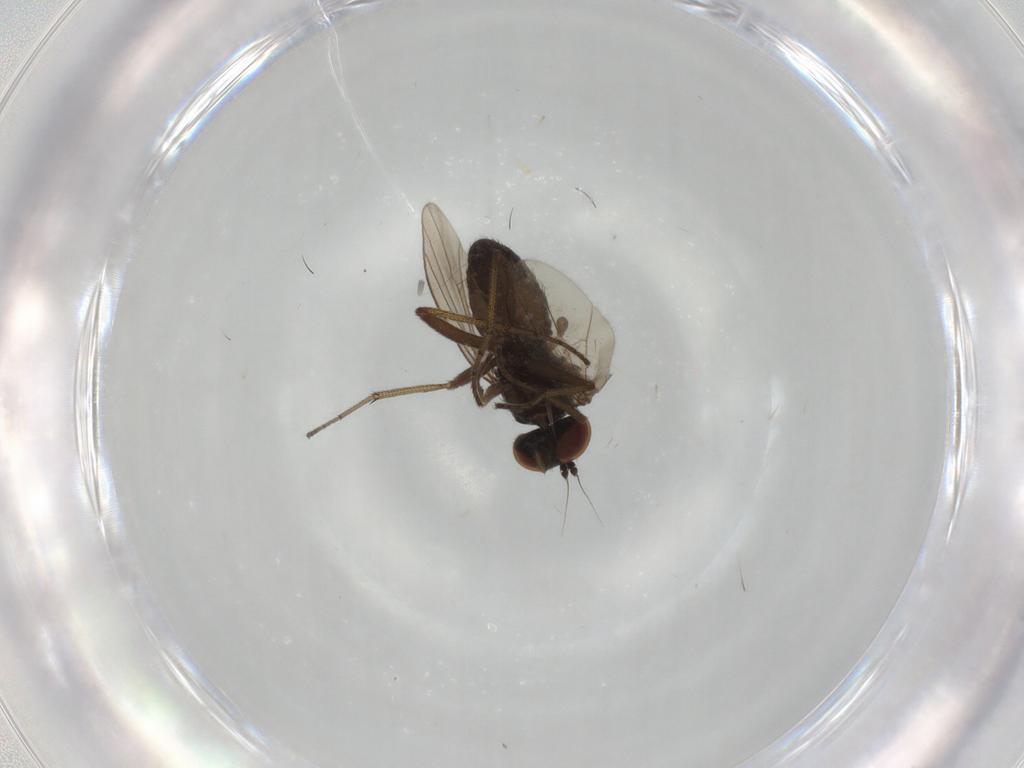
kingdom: Animalia
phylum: Arthropoda
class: Insecta
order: Diptera
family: Dolichopodidae
